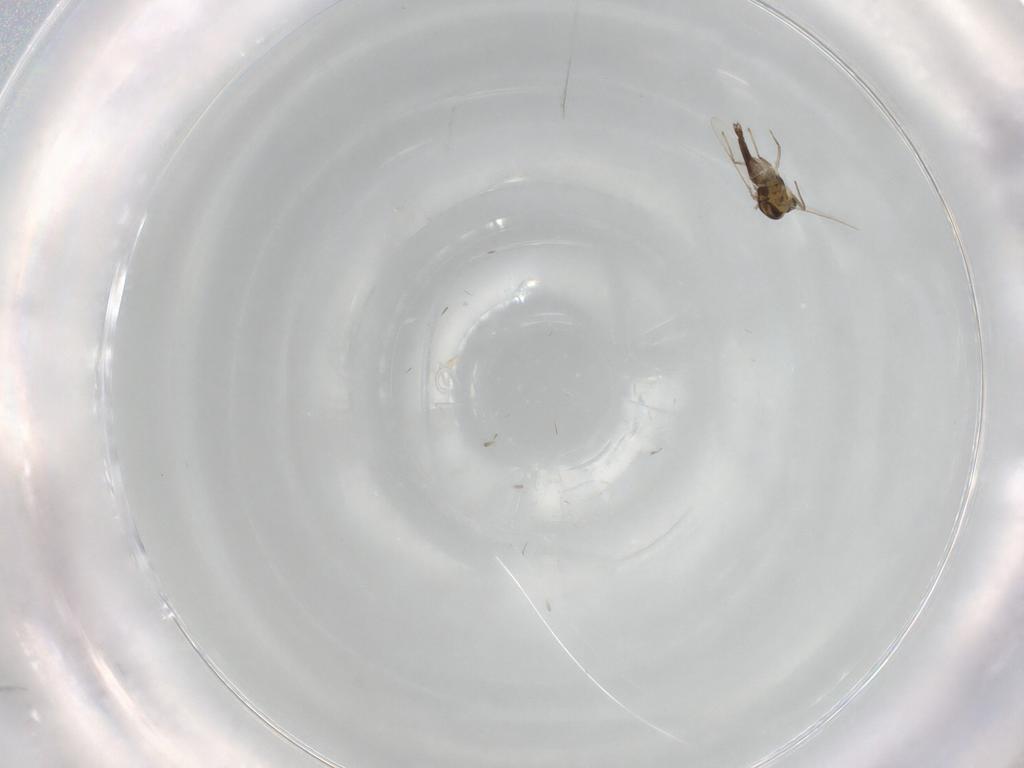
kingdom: Animalia
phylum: Arthropoda
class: Insecta
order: Diptera
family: Chironomidae
